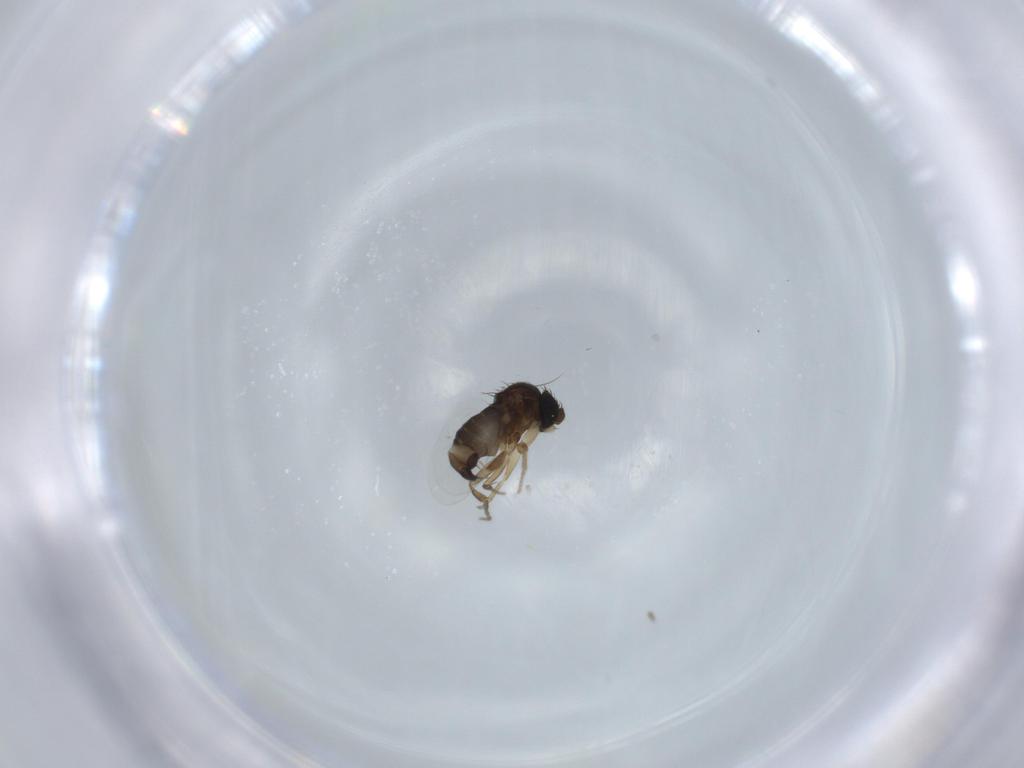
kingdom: Animalia
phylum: Arthropoda
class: Insecta
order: Diptera
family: Phoridae
